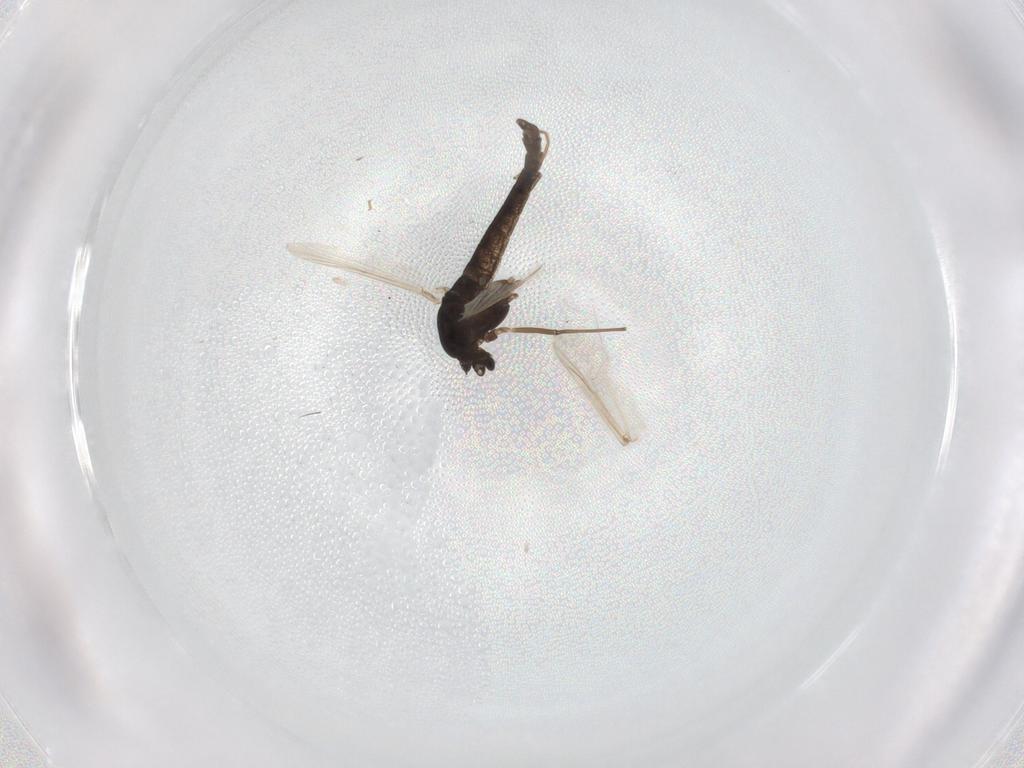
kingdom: Animalia
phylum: Arthropoda
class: Insecta
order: Diptera
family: Chironomidae
